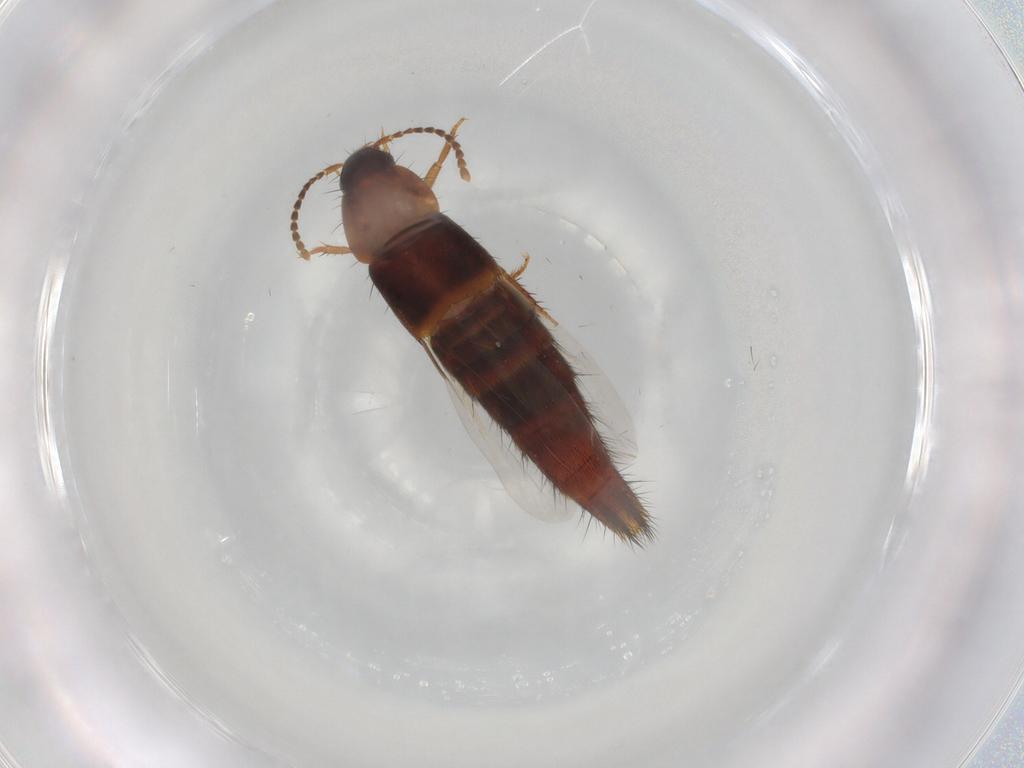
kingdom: Animalia
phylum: Arthropoda
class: Insecta
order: Coleoptera
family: Staphylinidae
